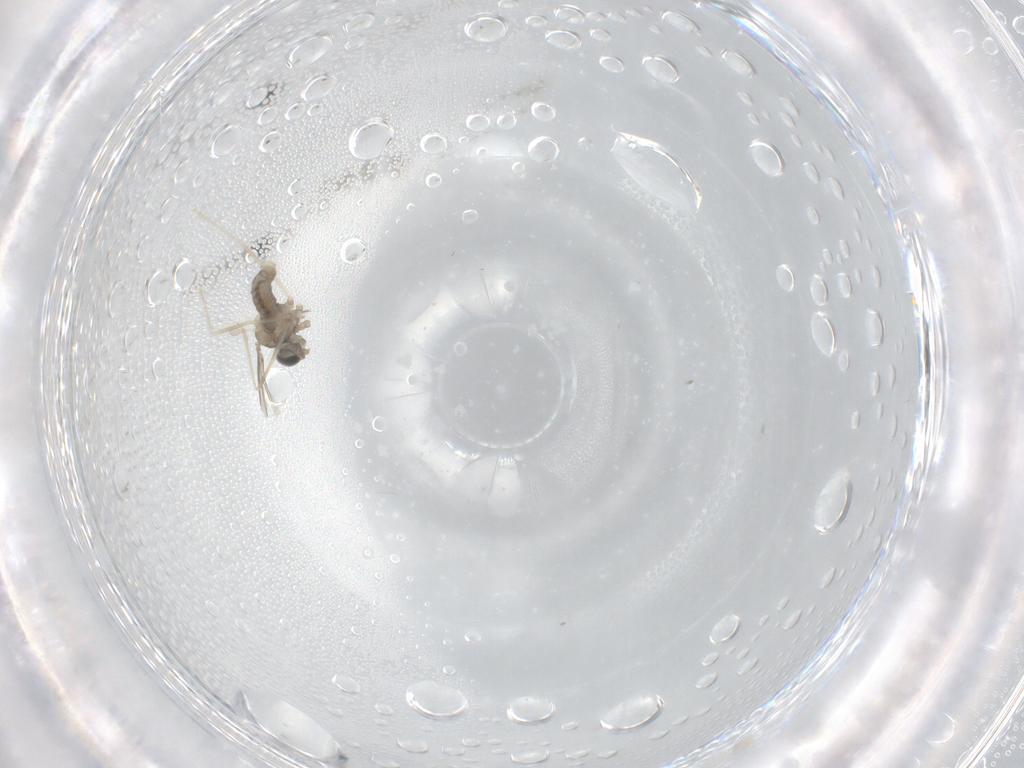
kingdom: Animalia
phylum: Arthropoda
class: Insecta
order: Diptera
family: Cecidomyiidae
